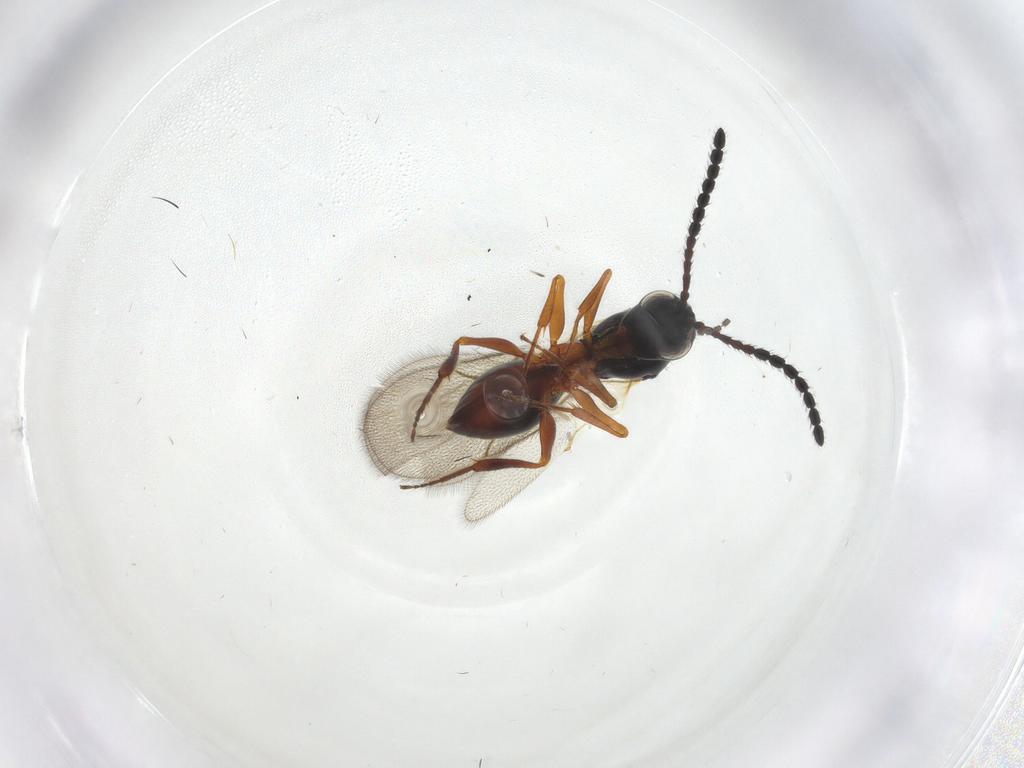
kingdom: Animalia
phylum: Arthropoda
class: Insecta
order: Hymenoptera
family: Figitidae
